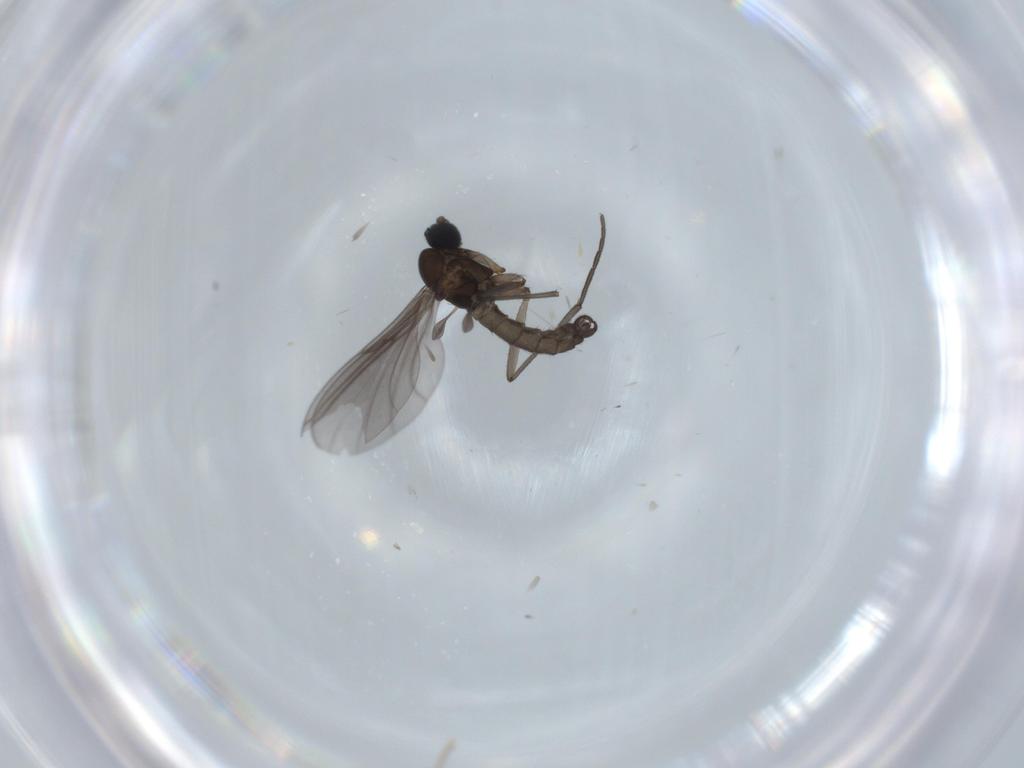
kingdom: Animalia
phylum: Arthropoda
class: Insecta
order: Diptera
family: Sciaridae
